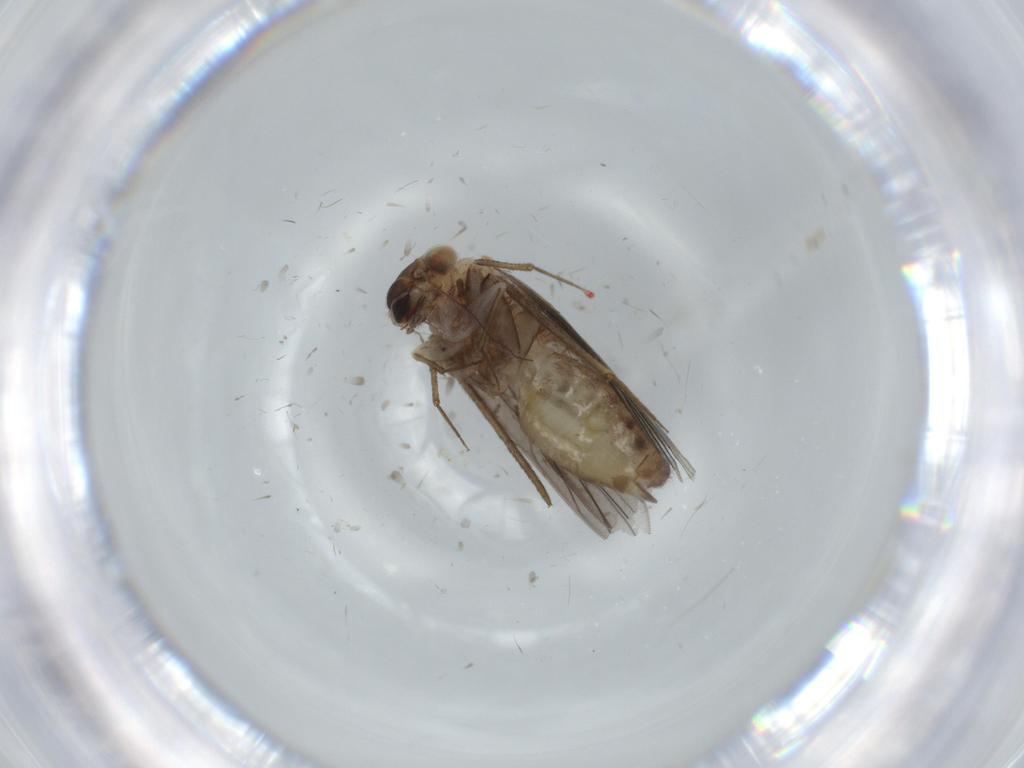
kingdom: Animalia
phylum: Arthropoda
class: Insecta
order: Psocodea
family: Lepidopsocidae
